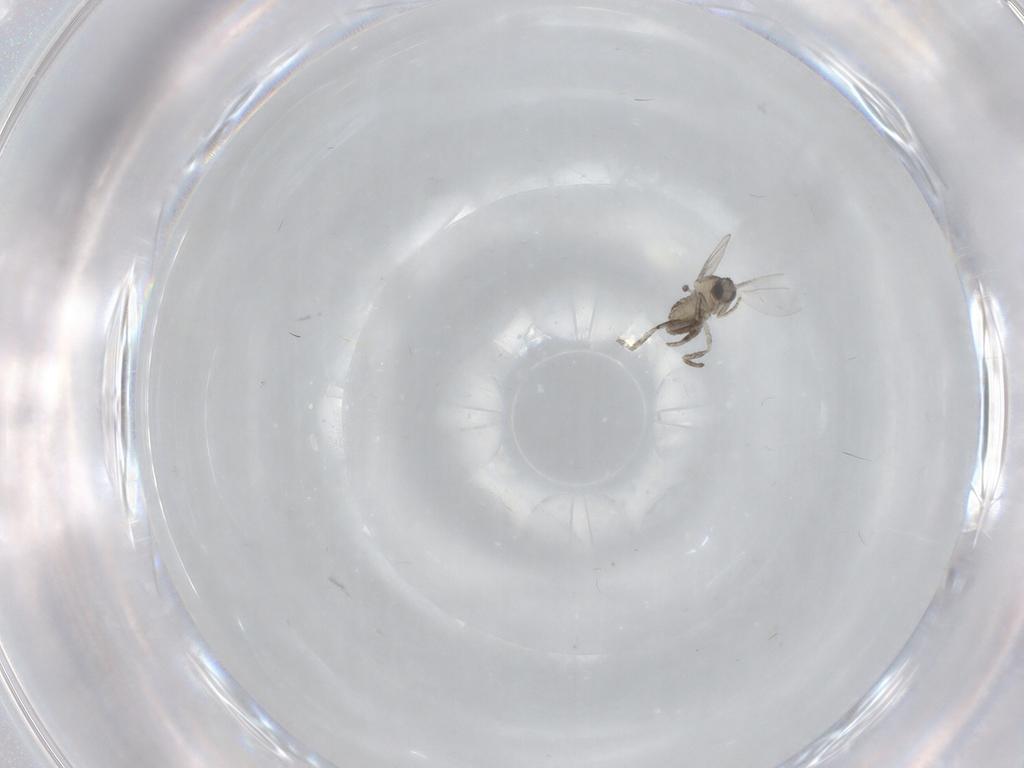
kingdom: Animalia
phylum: Arthropoda
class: Insecta
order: Diptera
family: Cecidomyiidae
